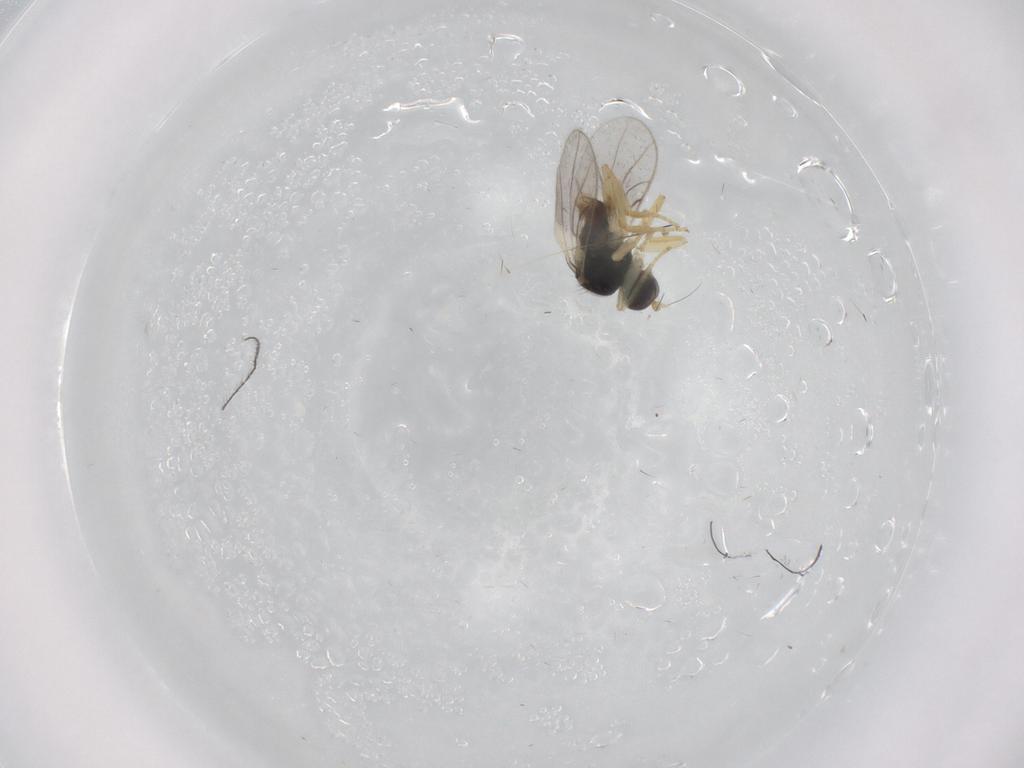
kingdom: Animalia
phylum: Arthropoda
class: Insecta
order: Diptera
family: Hybotidae
